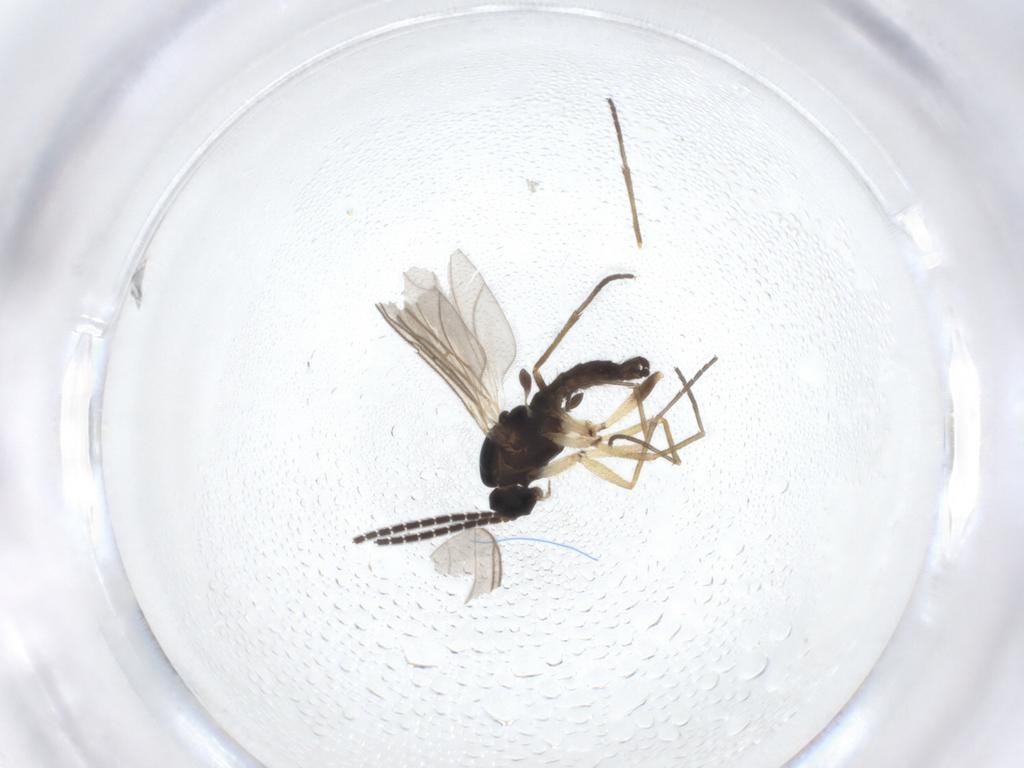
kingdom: Animalia
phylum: Arthropoda
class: Insecta
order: Diptera
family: Sciaridae
